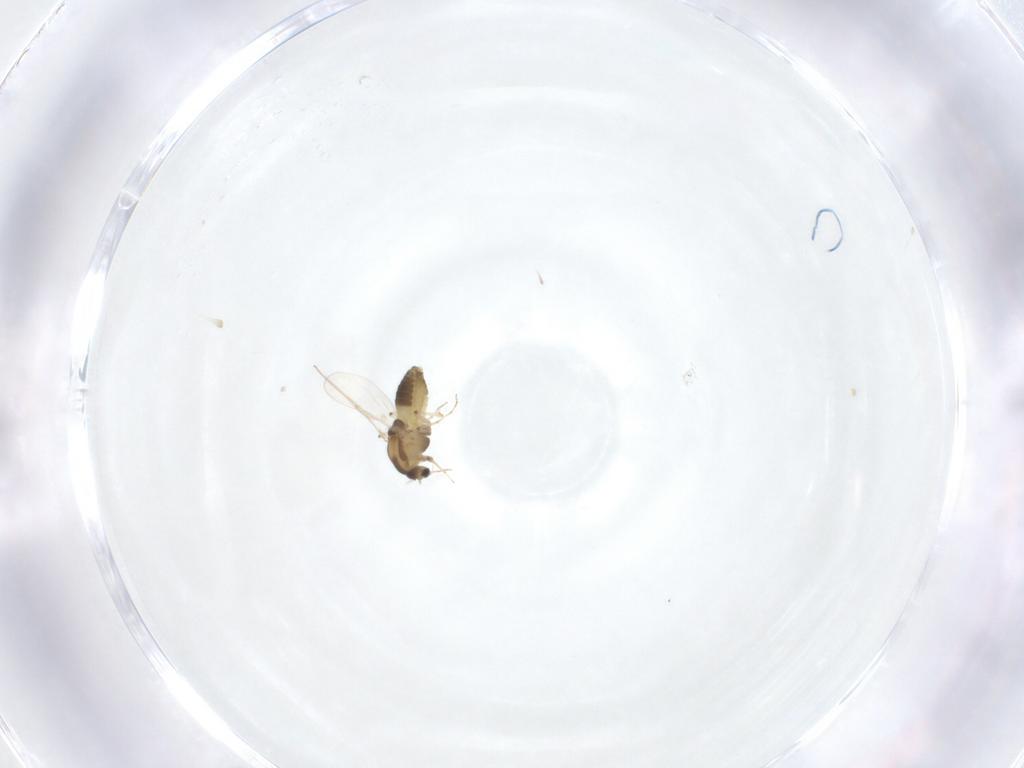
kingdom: Animalia
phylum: Arthropoda
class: Insecta
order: Diptera
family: Chironomidae
